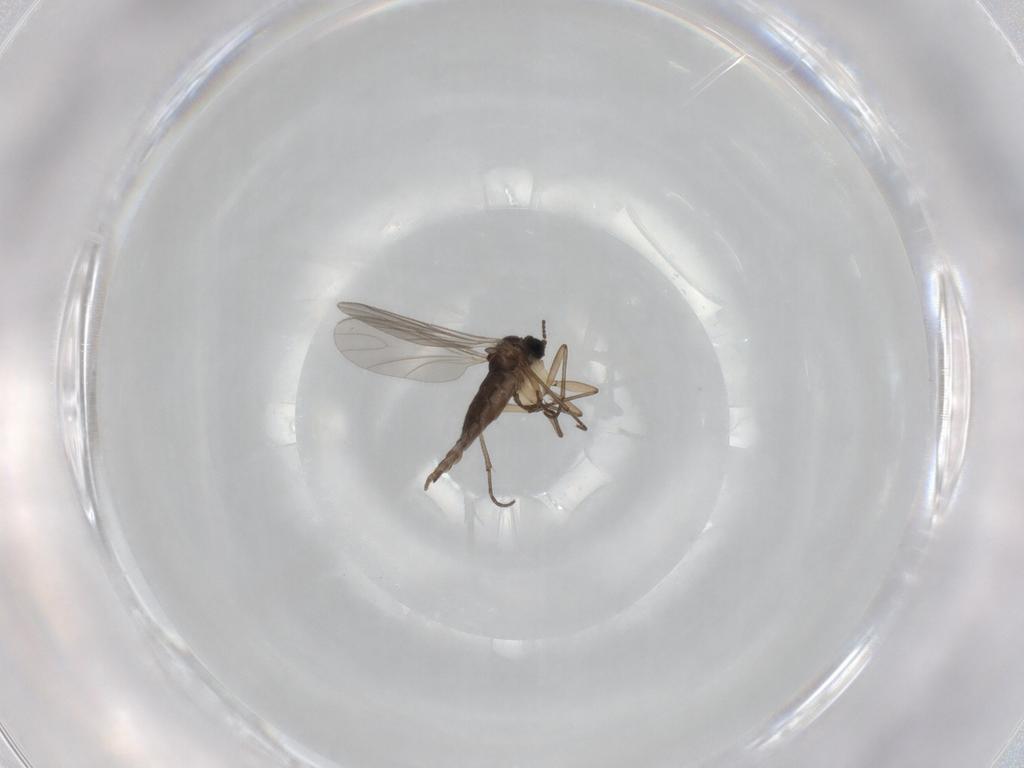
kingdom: Animalia
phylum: Arthropoda
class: Insecta
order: Diptera
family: Sciaridae
